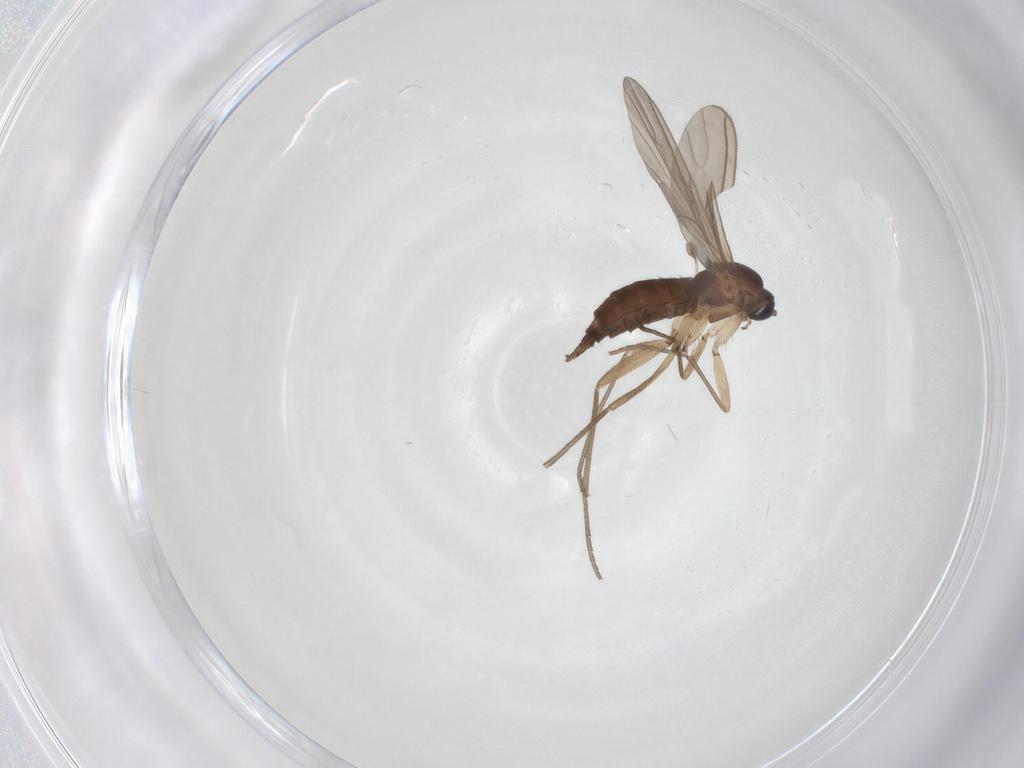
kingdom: Animalia
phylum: Arthropoda
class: Insecta
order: Diptera
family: Sciaridae
